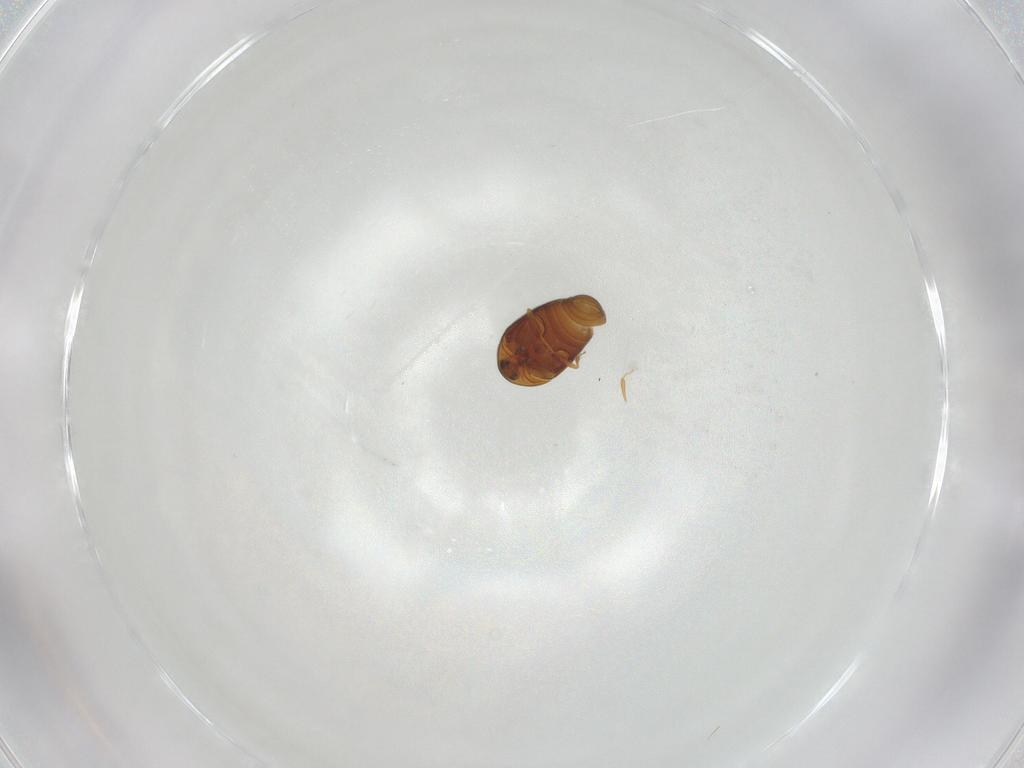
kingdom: Animalia
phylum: Arthropoda
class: Insecta
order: Coleoptera
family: Corylophidae
